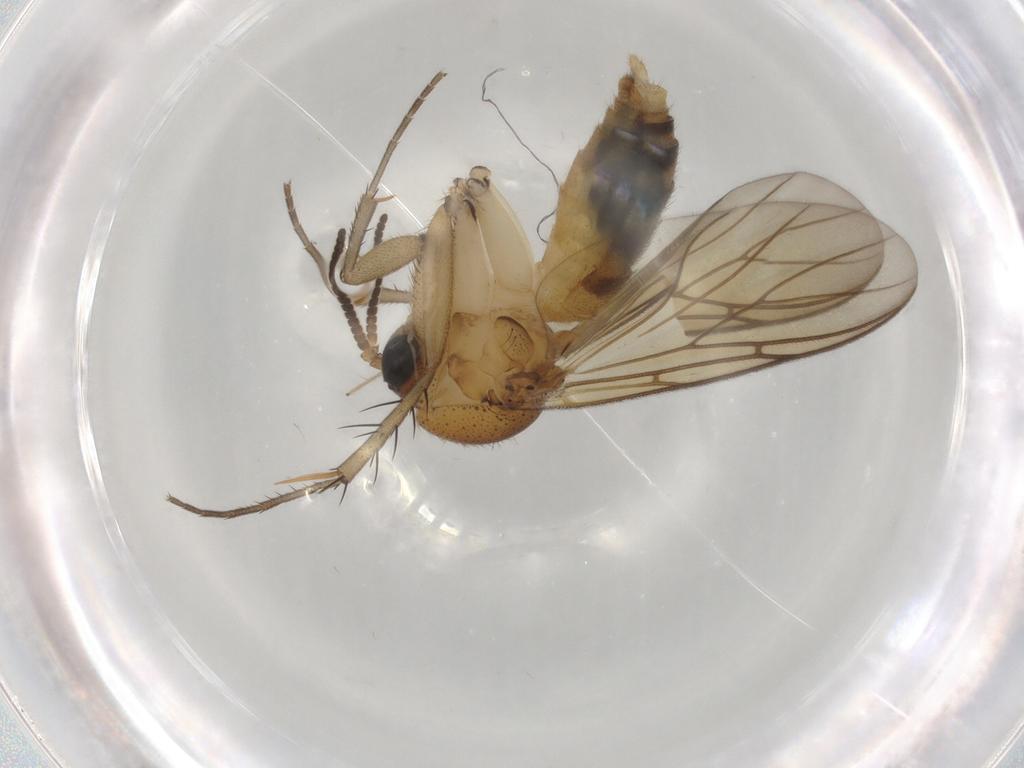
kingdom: Animalia
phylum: Arthropoda
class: Insecta
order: Diptera
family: Mycetophilidae
